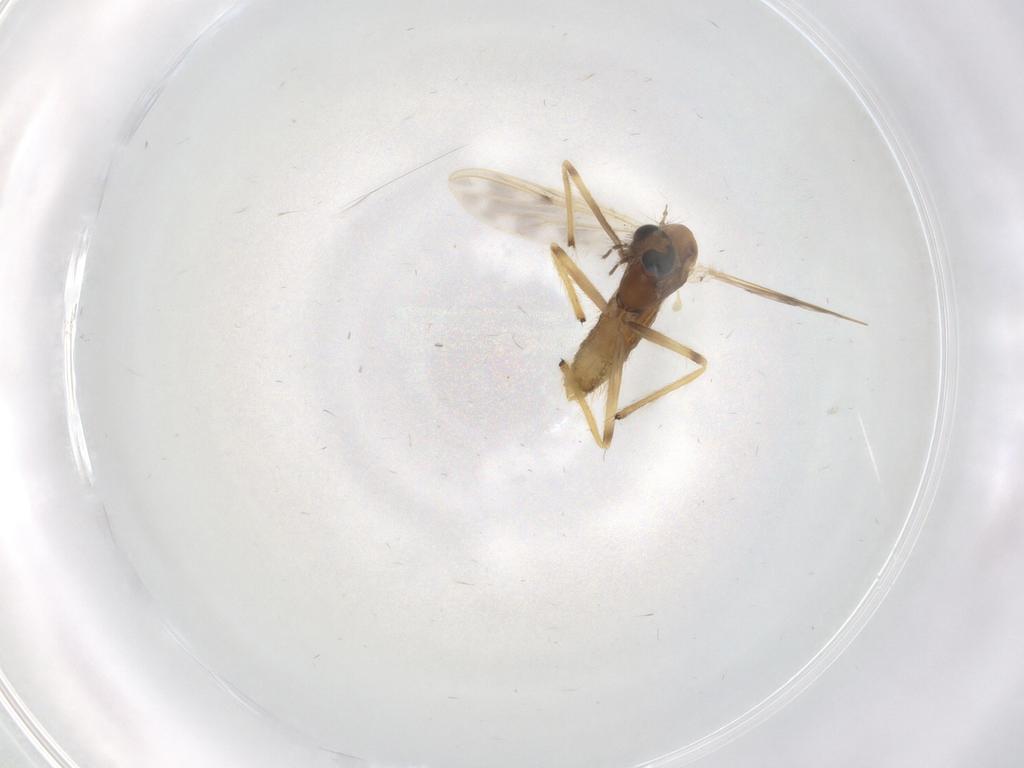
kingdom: Animalia
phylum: Arthropoda
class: Insecta
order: Diptera
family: Chironomidae
